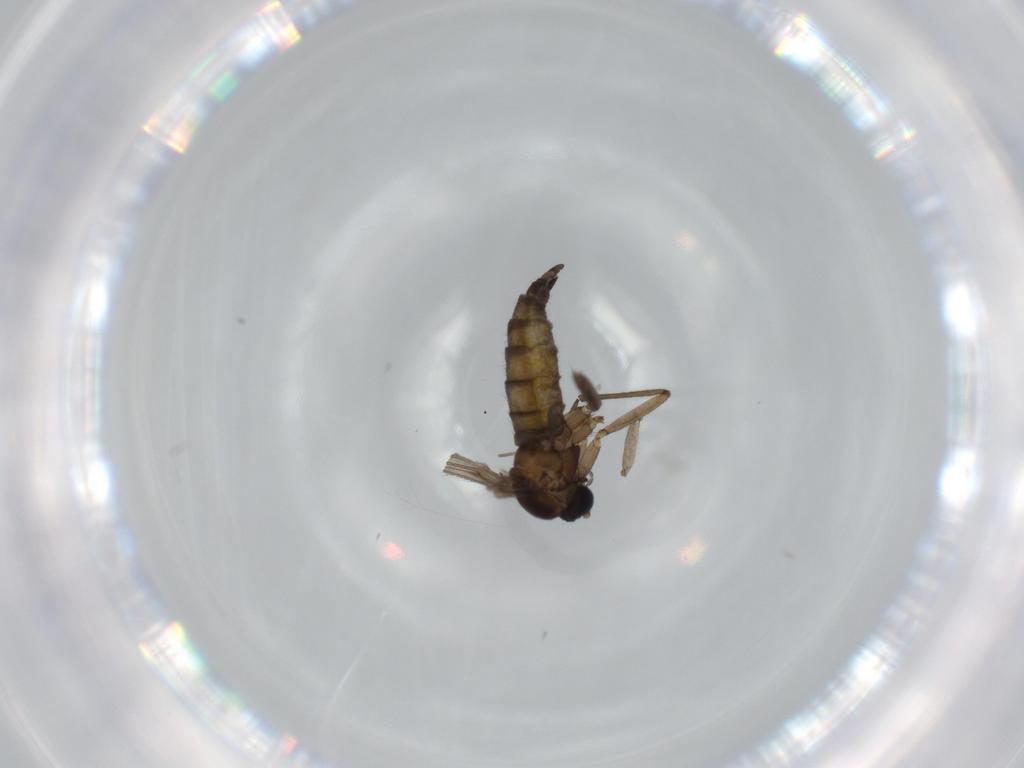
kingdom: Animalia
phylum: Arthropoda
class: Insecta
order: Diptera
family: Sciaridae
